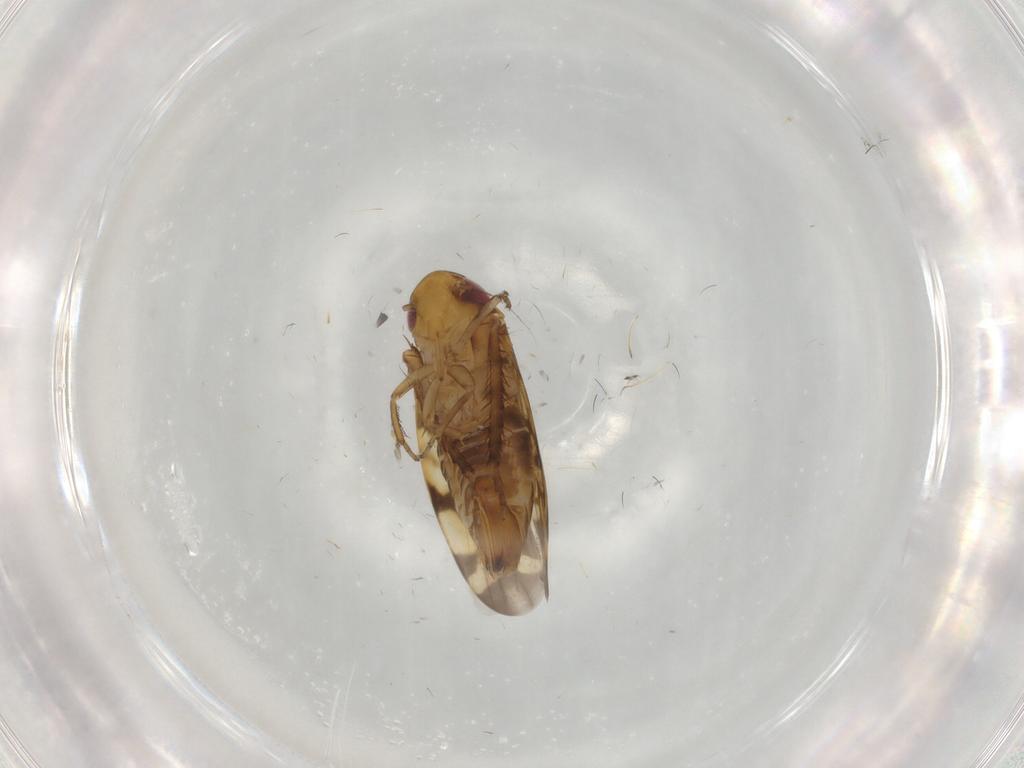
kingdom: Animalia
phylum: Arthropoda
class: Insecta
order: Hemiptera
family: Cicadellidae
